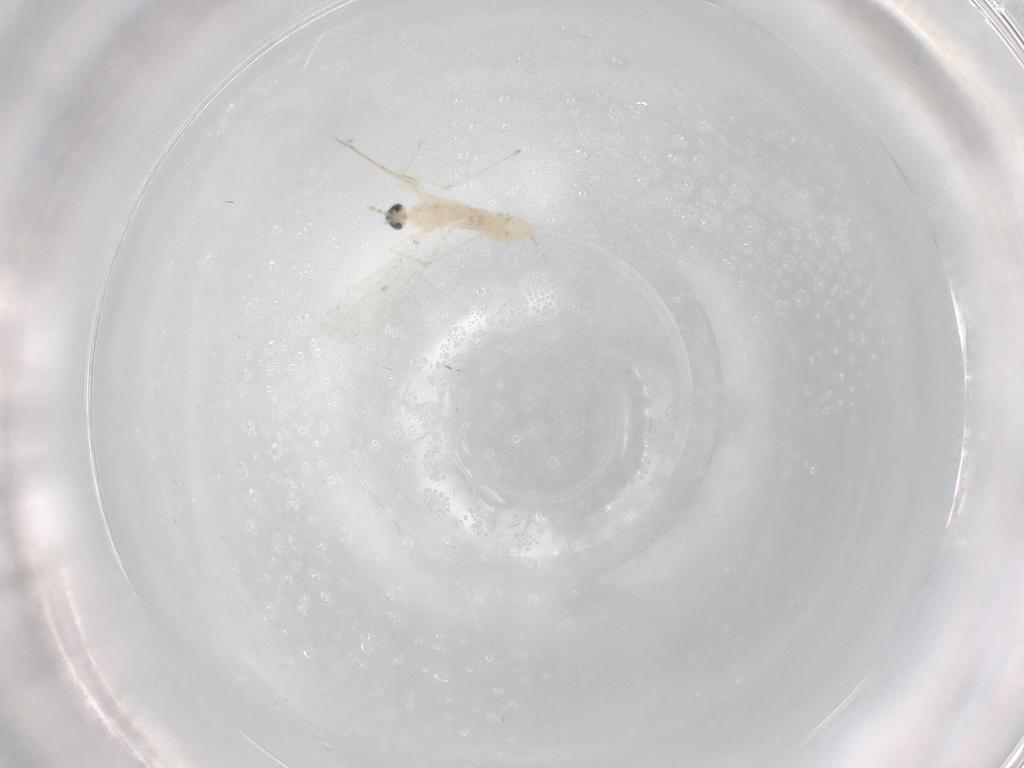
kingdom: Animalia
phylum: Arthropoda
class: Insecta
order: Diptera
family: Cecidomyiidae
